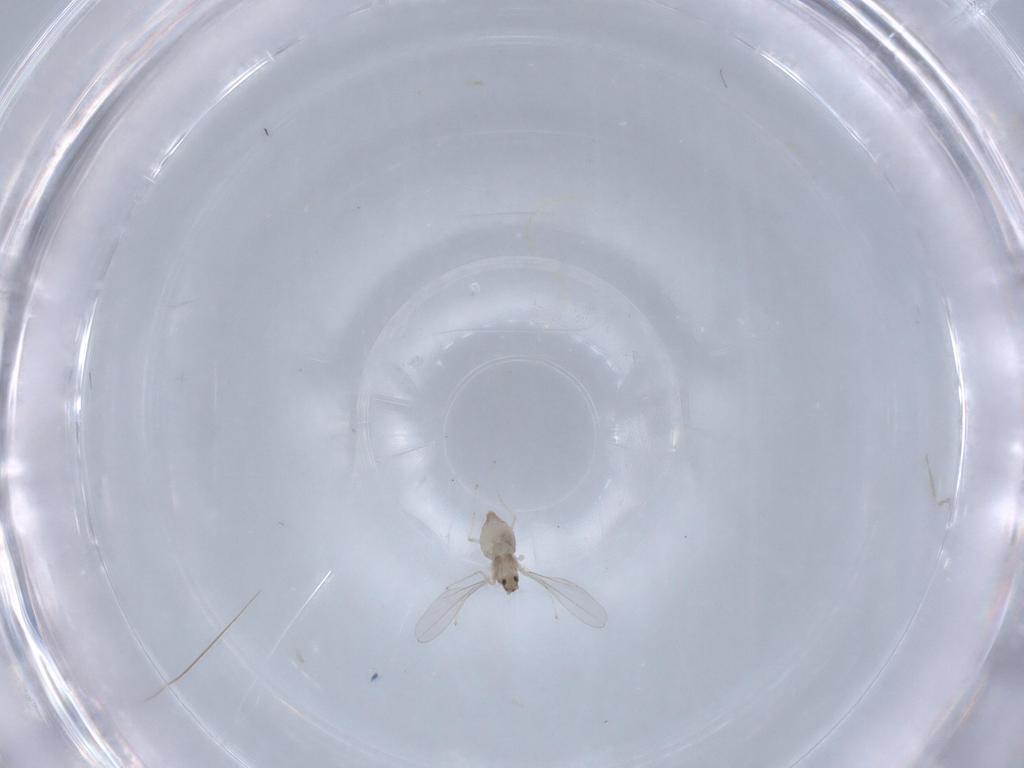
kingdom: Animalia
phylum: Arthropoda
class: Insecta
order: Diptera
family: Cecidomyiidae
